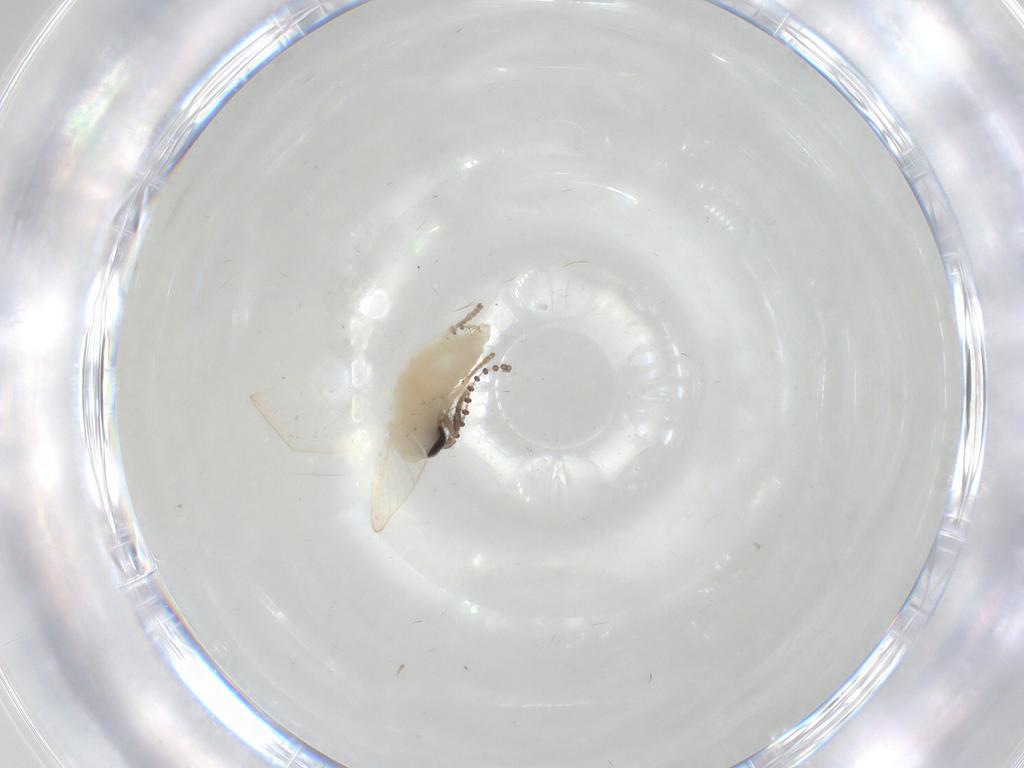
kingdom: Animalia
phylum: Arthropoda
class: Insecta
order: Diptera
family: Psychodidae
